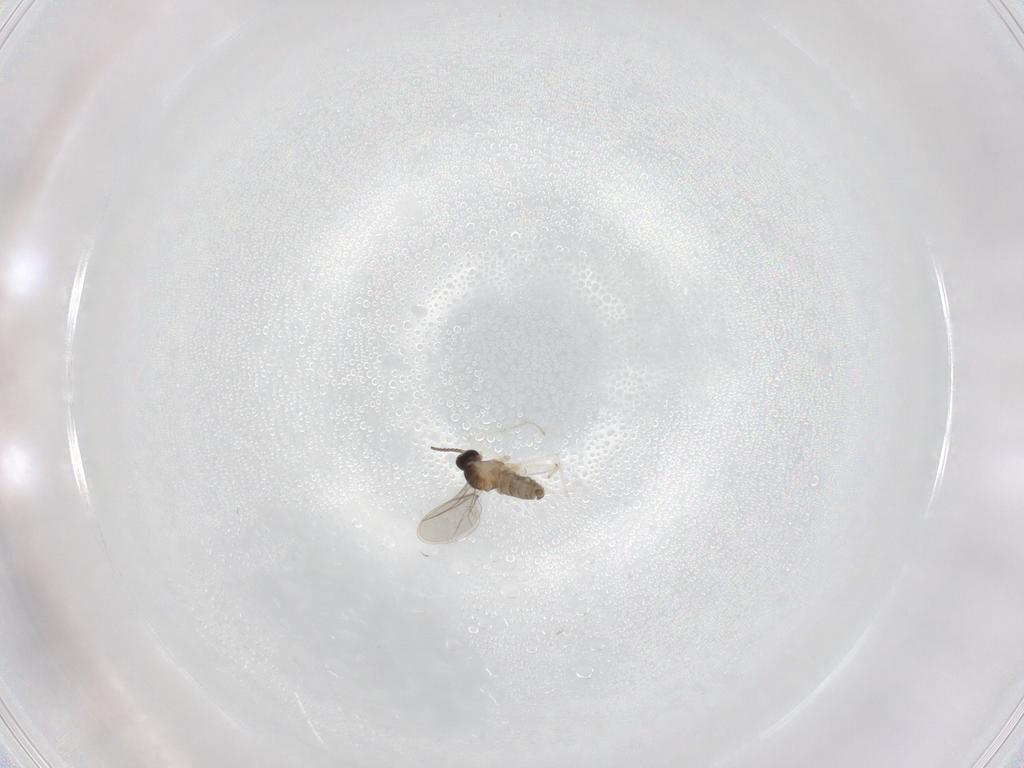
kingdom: Animalia
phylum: Arthropoda
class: Insecta
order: Diptera
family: Cecidomyiidae
